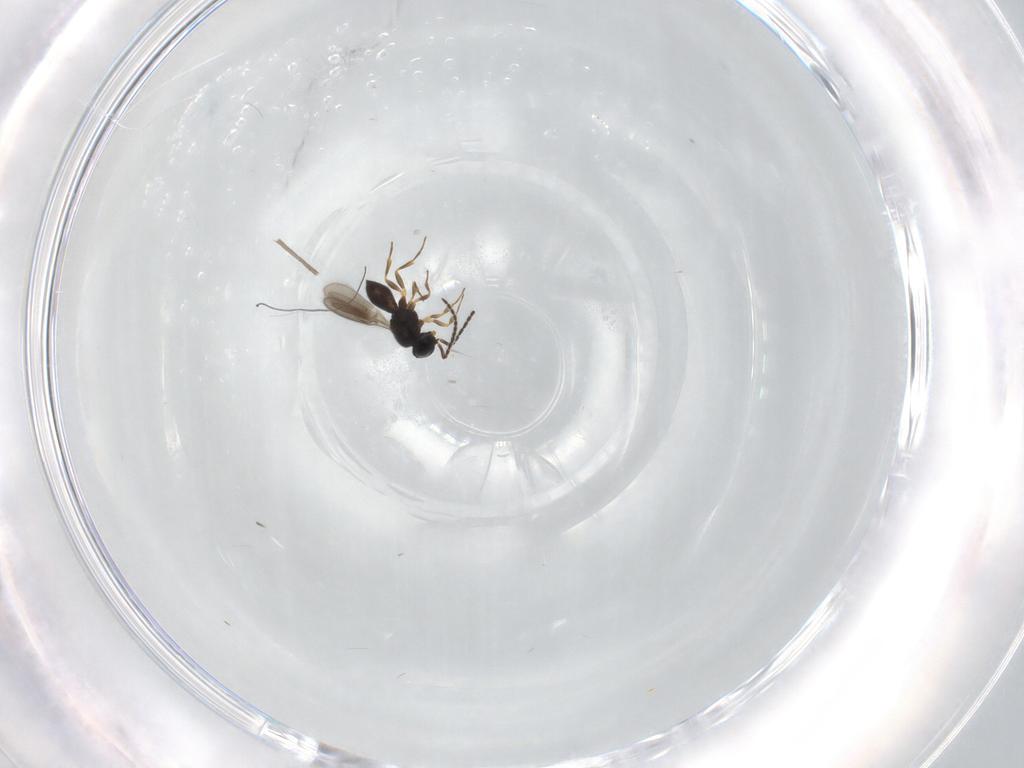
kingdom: Animalia
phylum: Arthropoda
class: Insecta
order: Hymenoptera
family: Scelionidae
